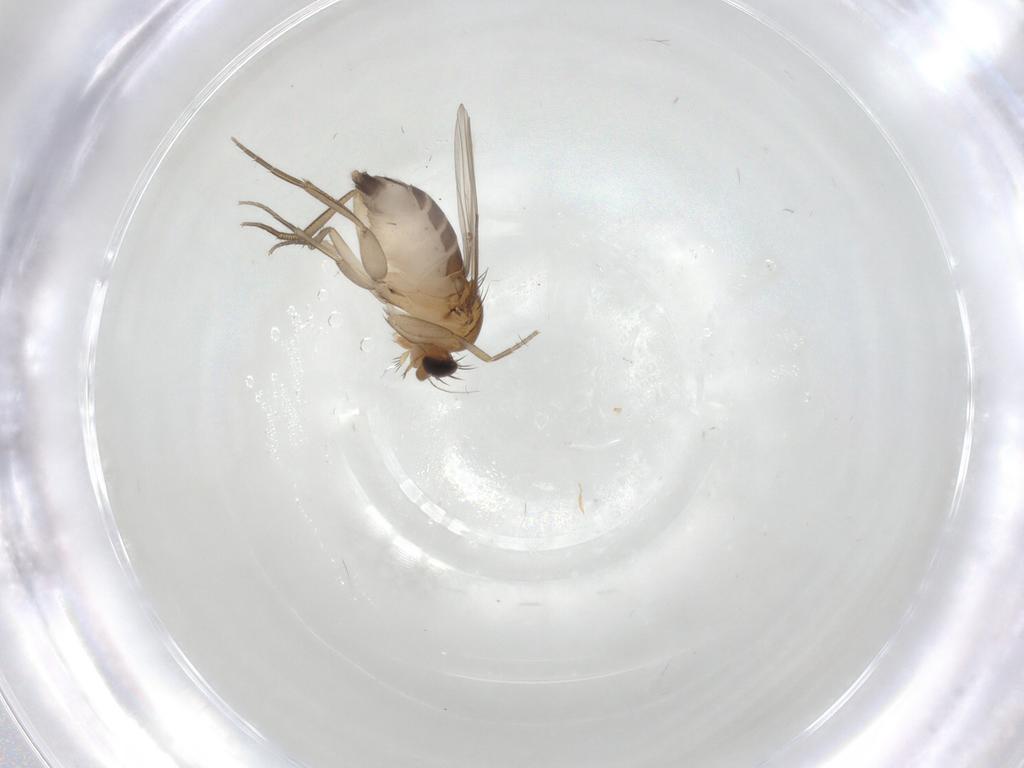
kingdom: Animalia
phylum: Arthropoda
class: Insecta
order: Diptera
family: Phoridae
